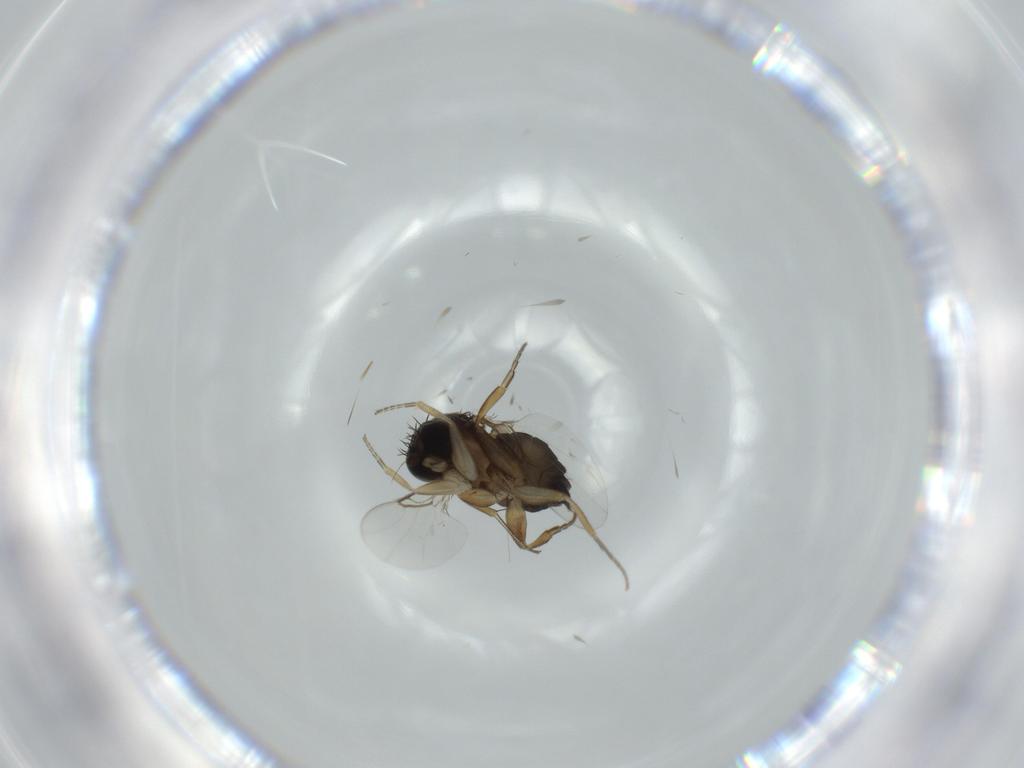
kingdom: Animalia
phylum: Arthropoda
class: Insecta
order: Diptera
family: Phoridae
